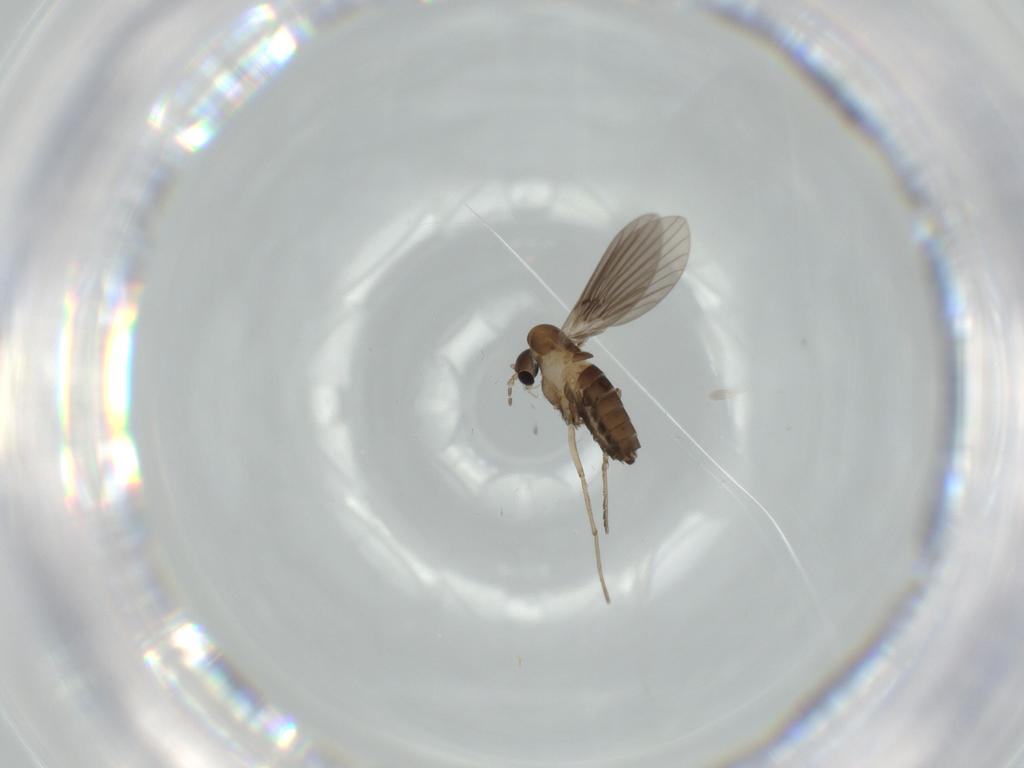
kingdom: Animalia
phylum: Arthropoda
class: Insecta
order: Diptera
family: Psychodidae
